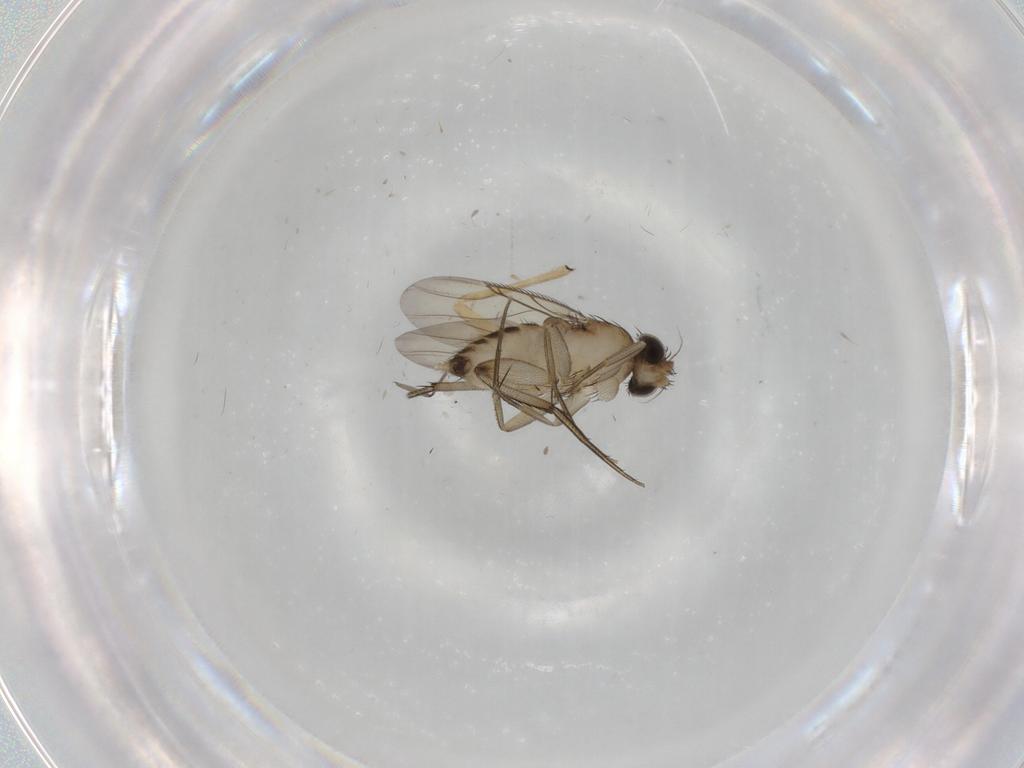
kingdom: Animalia
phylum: Arthropoda
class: Insecta
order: Diptera
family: Phoridae
